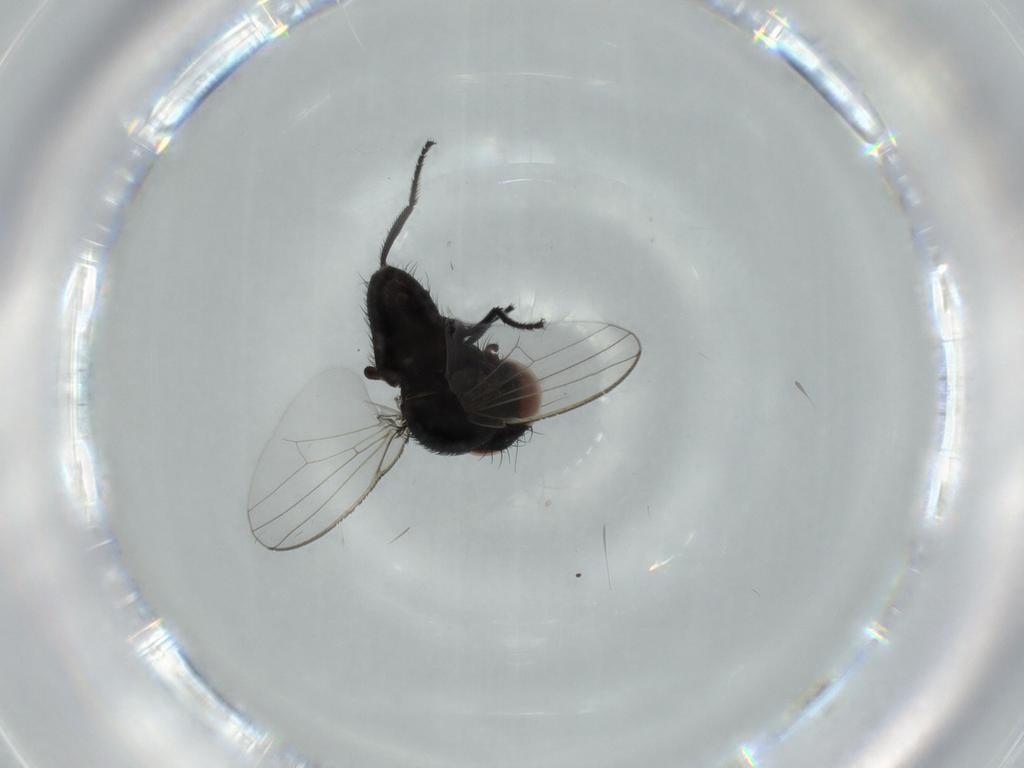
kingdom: Animalia
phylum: Arthropoda
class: Insecta
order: Diptera
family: Milichiidae
